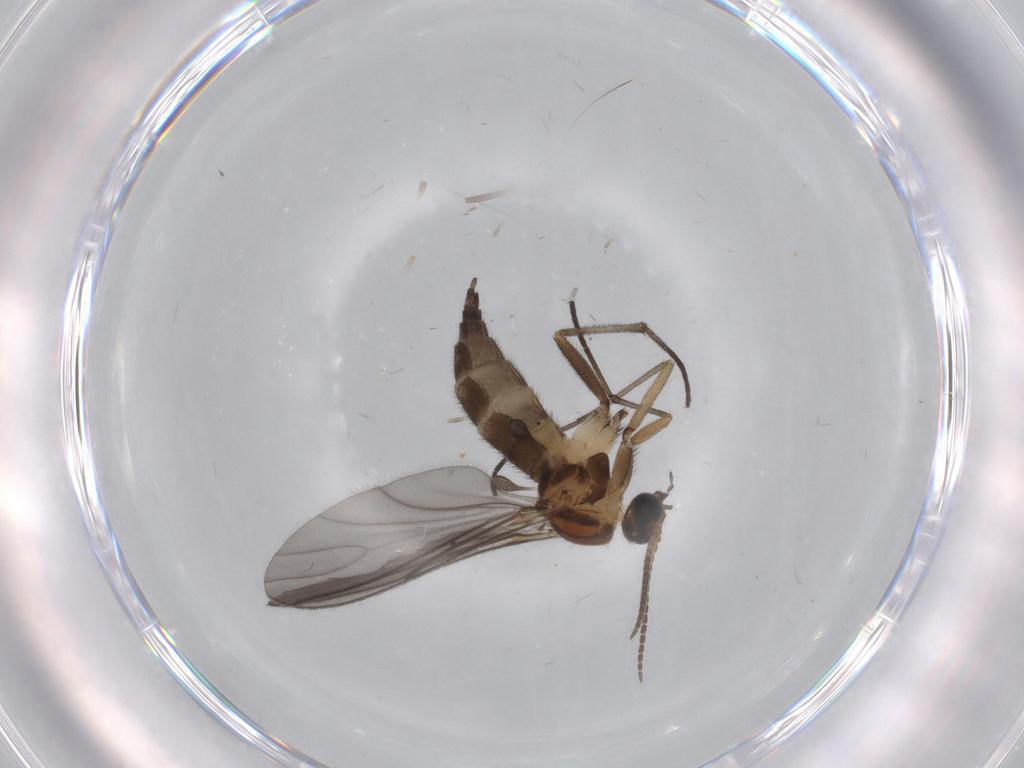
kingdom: Animalia
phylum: Arthropoda
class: Insecta
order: Diptera
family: Sciaridae
